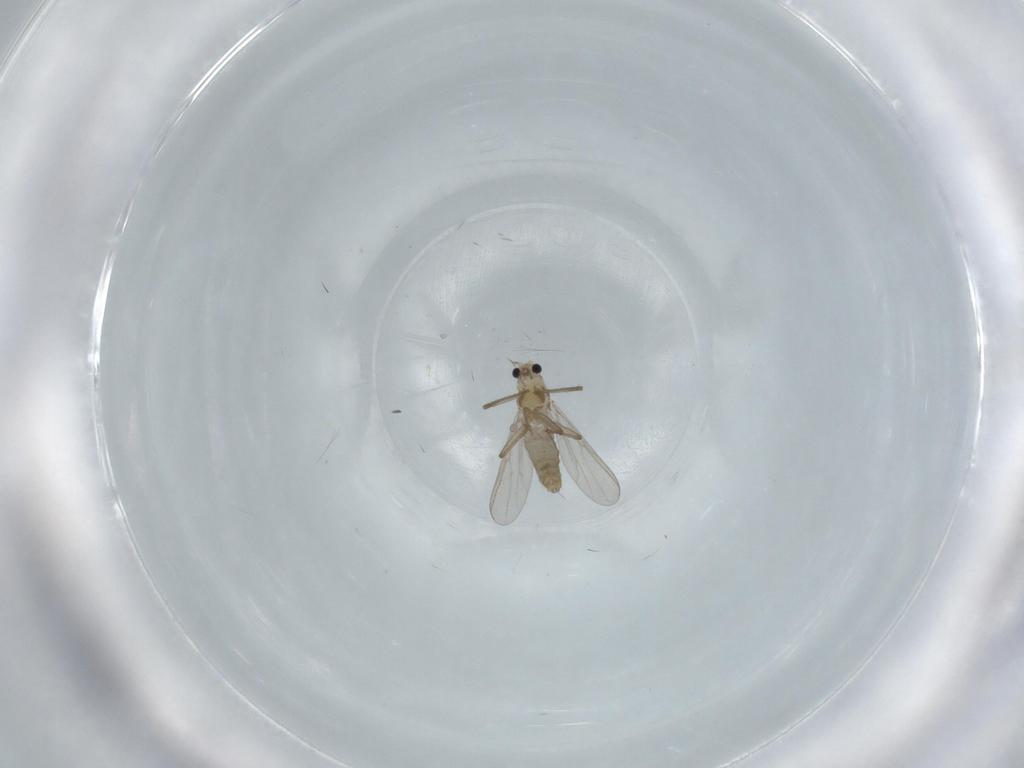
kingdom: Animalia
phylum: Arthropoda
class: Insecta
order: Diptera
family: Chironomidae
